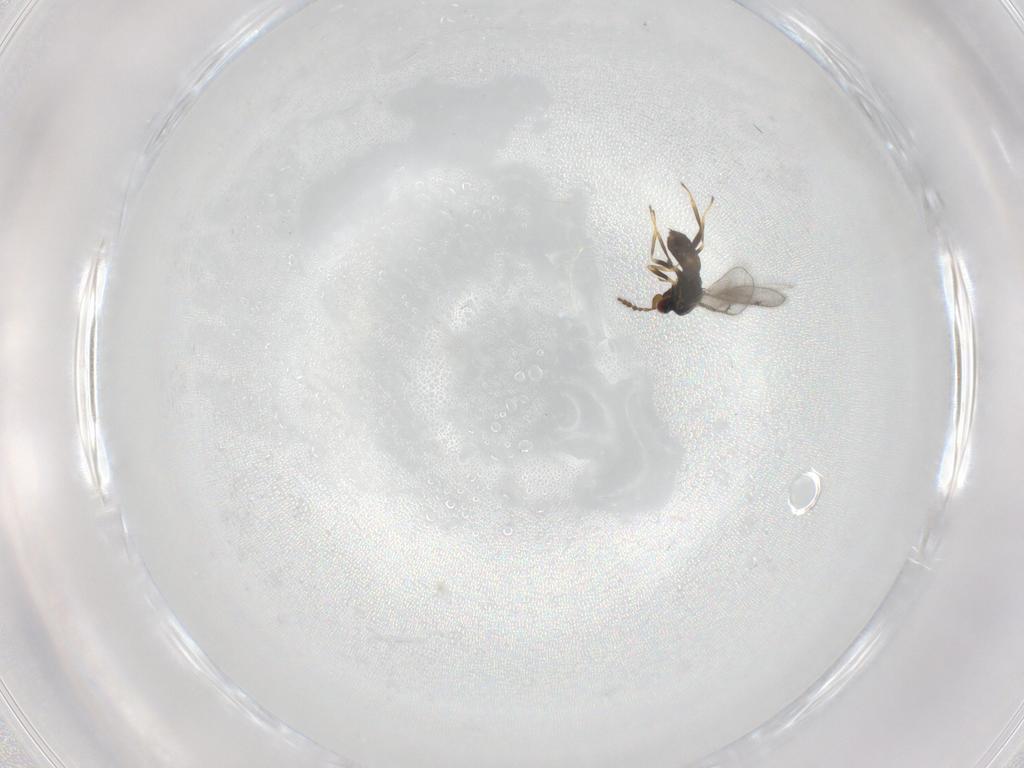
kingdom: Animalia
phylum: Arthropoda
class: Insecta
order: Hymenoptera
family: Eulophidae
